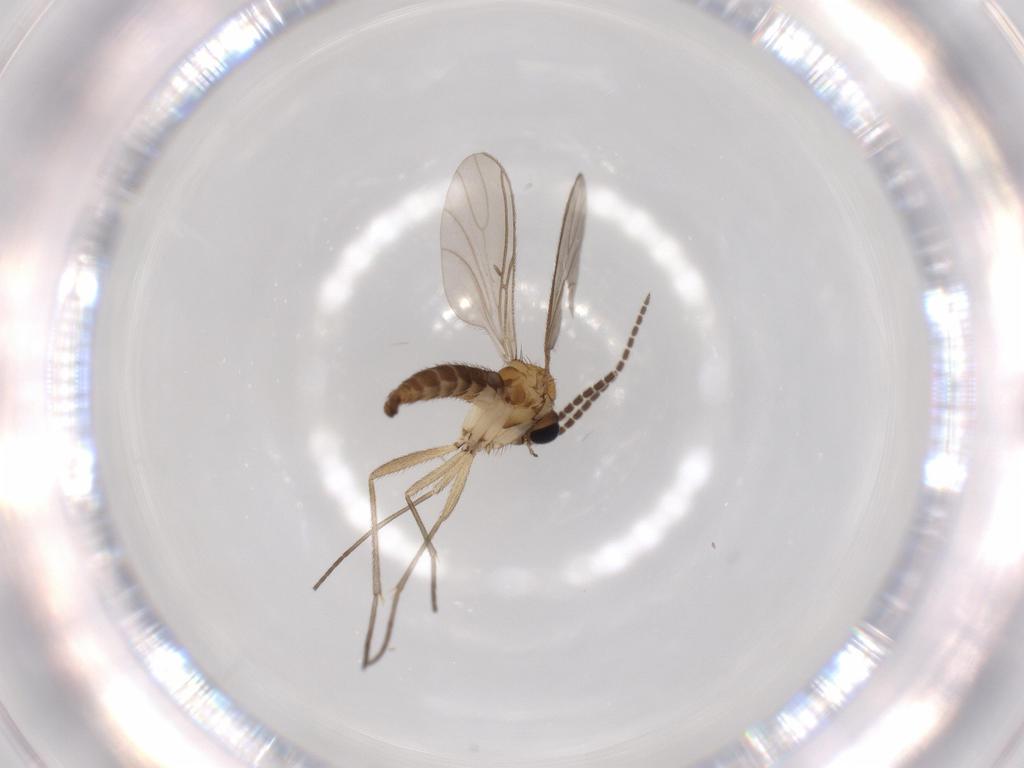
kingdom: Animalia
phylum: Arthropoda
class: Insecta
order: Diptera
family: Sciaridae
